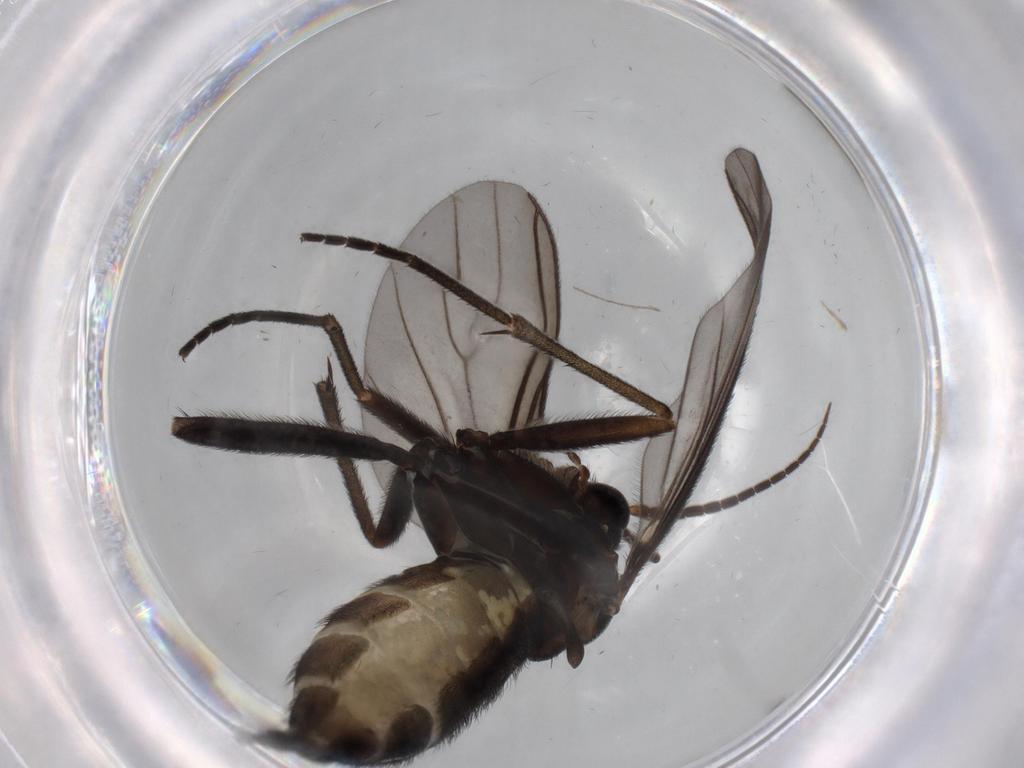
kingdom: Animalia
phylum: Arthropoda
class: Insecta
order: Diptera
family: Sciaridae
